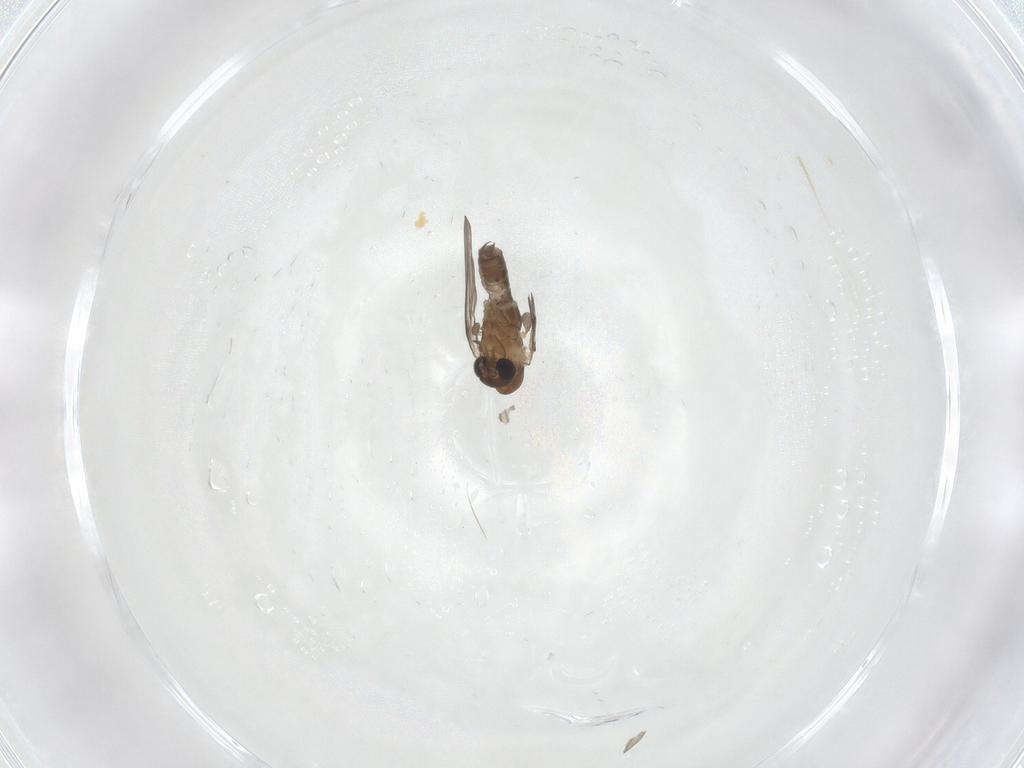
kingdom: Animalia
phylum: Arthropoda
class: Insecta
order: Diptera
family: Psychodidae
